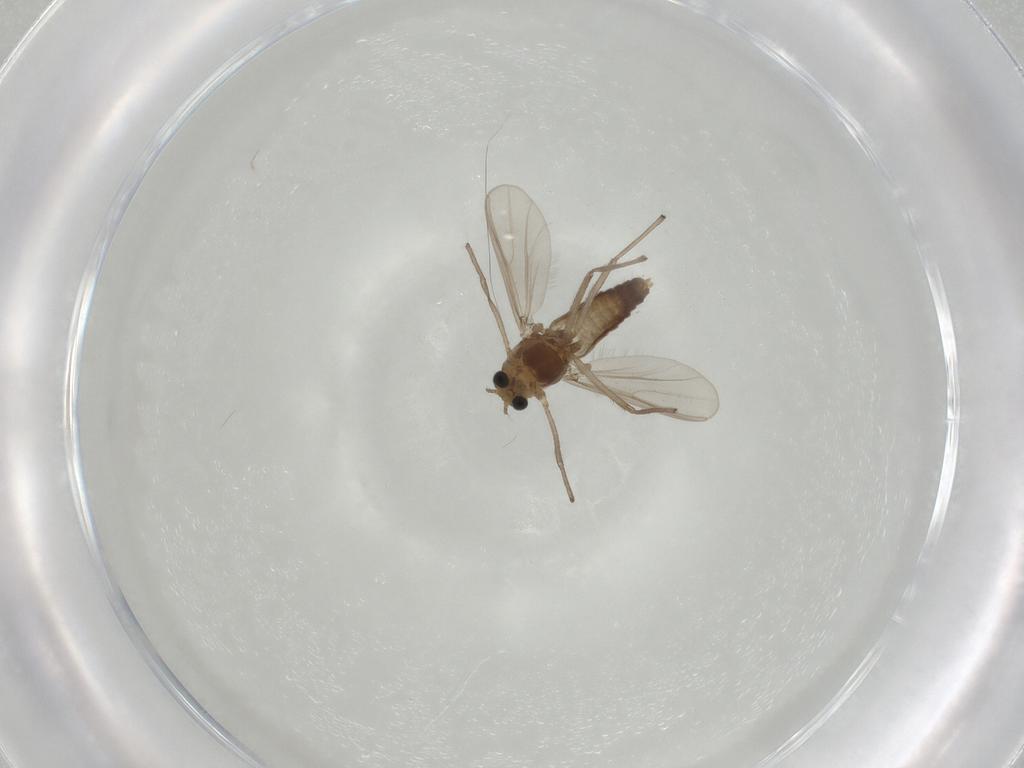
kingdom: Animalia
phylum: Arthropoda
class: Insecta
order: Diptera
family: Chironomidae
